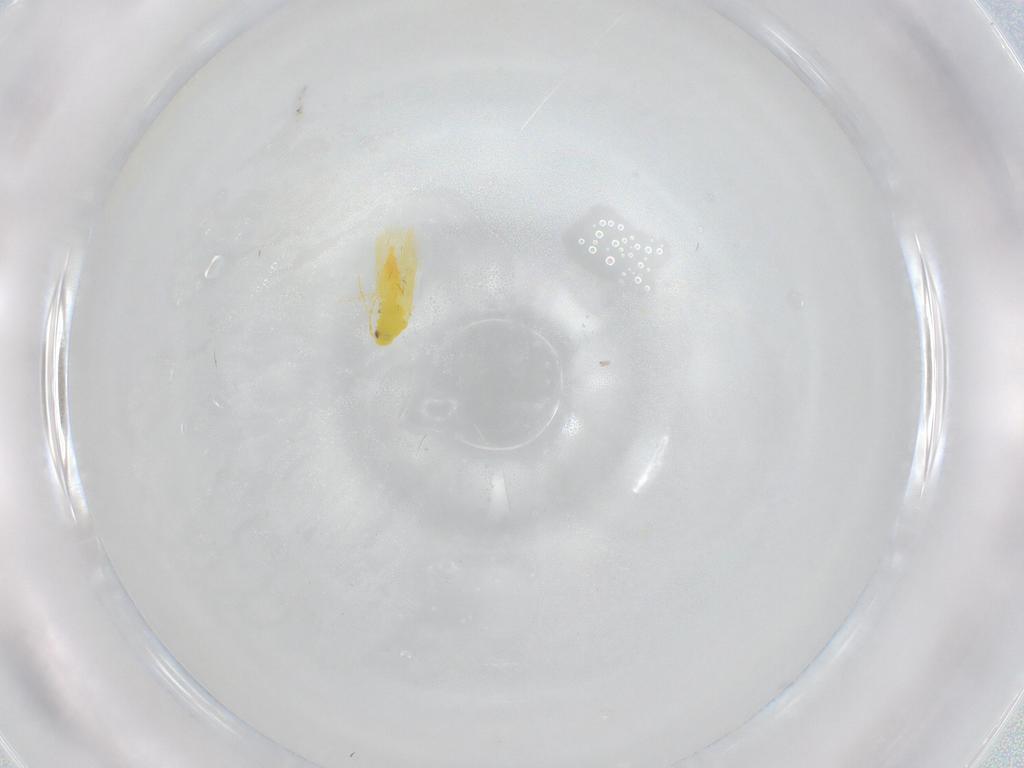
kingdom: Animalia
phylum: Arthropoda
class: Insecta
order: Hemiptera
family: Aleyrodidae
